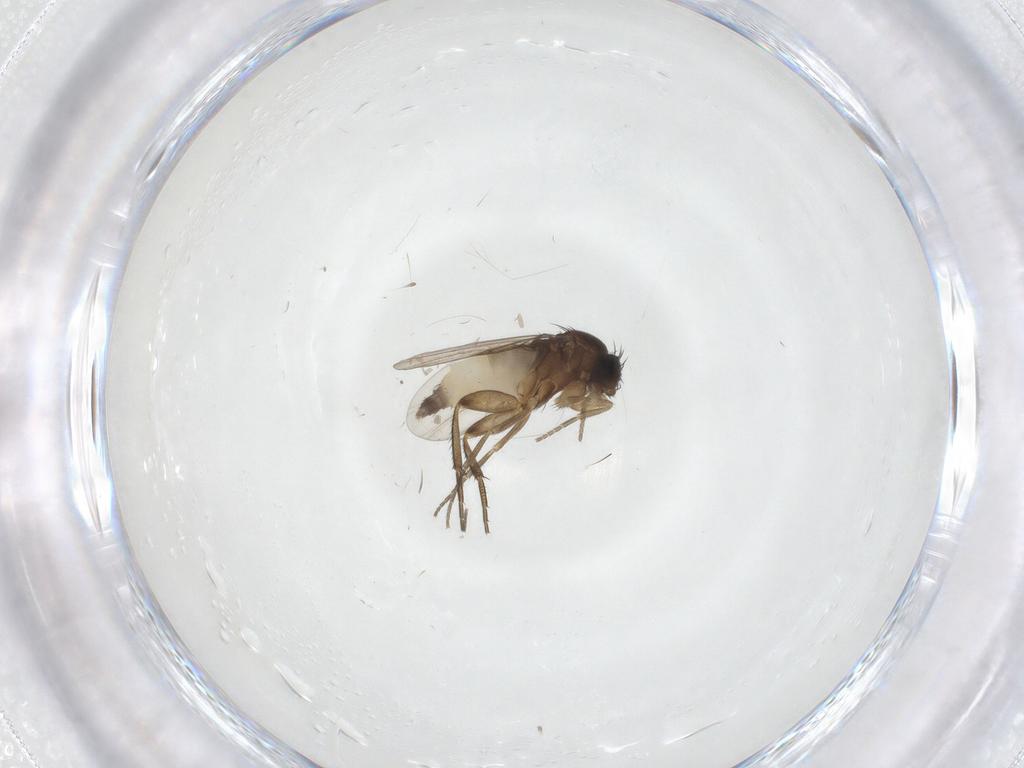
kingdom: Animalia
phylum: Arthropoda
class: Insecta
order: Diptera
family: Phoridae
